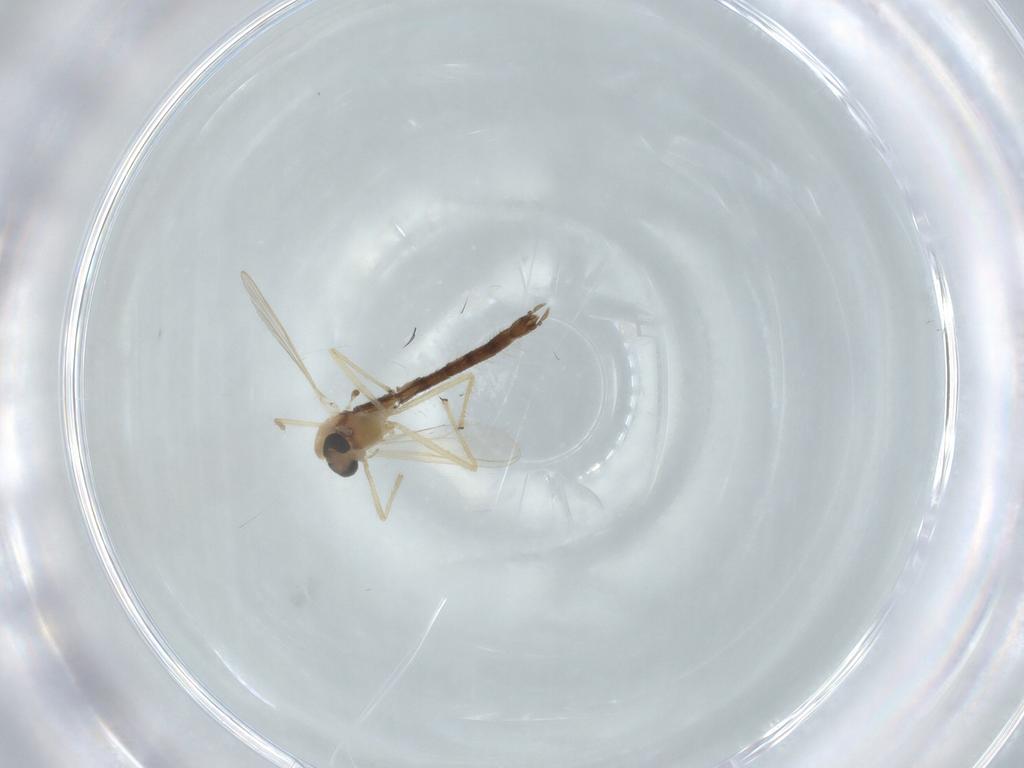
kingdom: Animalia
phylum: Arthropoda
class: Insecta
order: Diptera
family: Chironomidae
